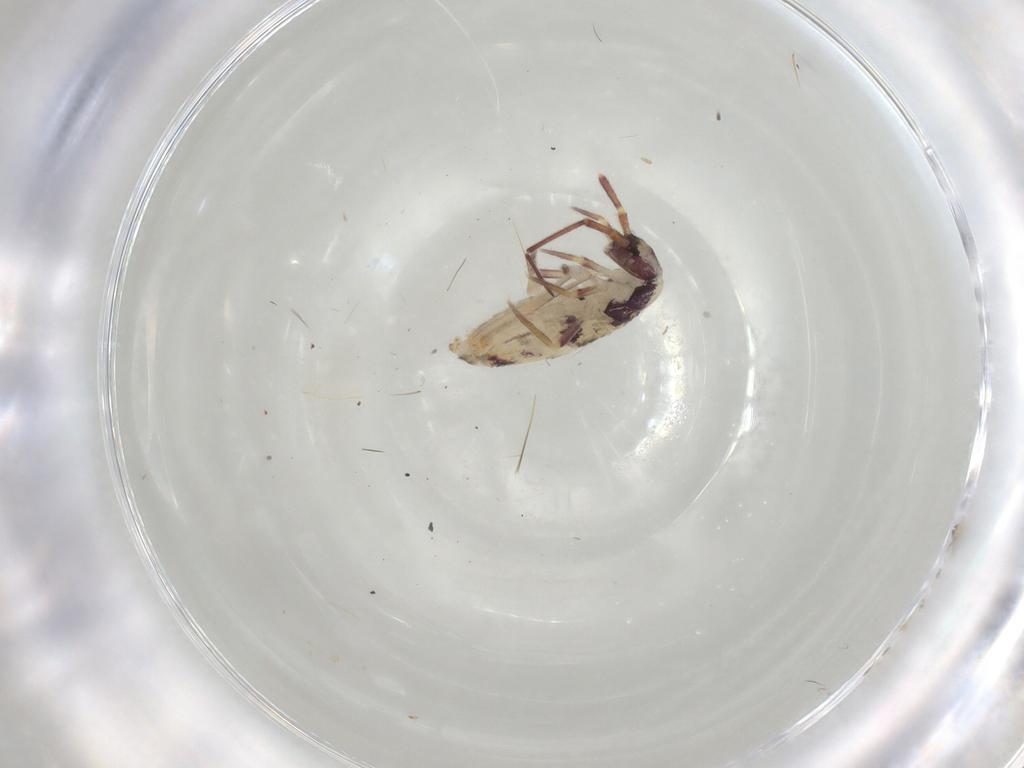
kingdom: Animalia
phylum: Arthropoda
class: Collembola
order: Entomobryomorpha
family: Entomobryidae
